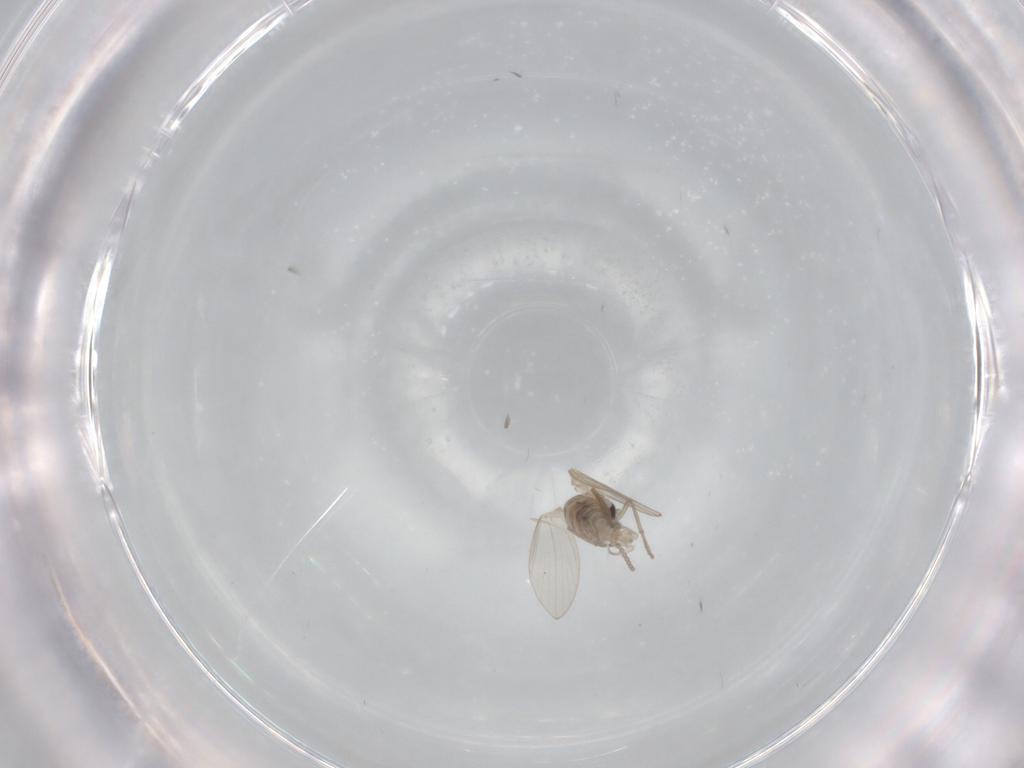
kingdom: Animalia
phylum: Arthropoda
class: Insecta
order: Diptera
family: Psychodidae
